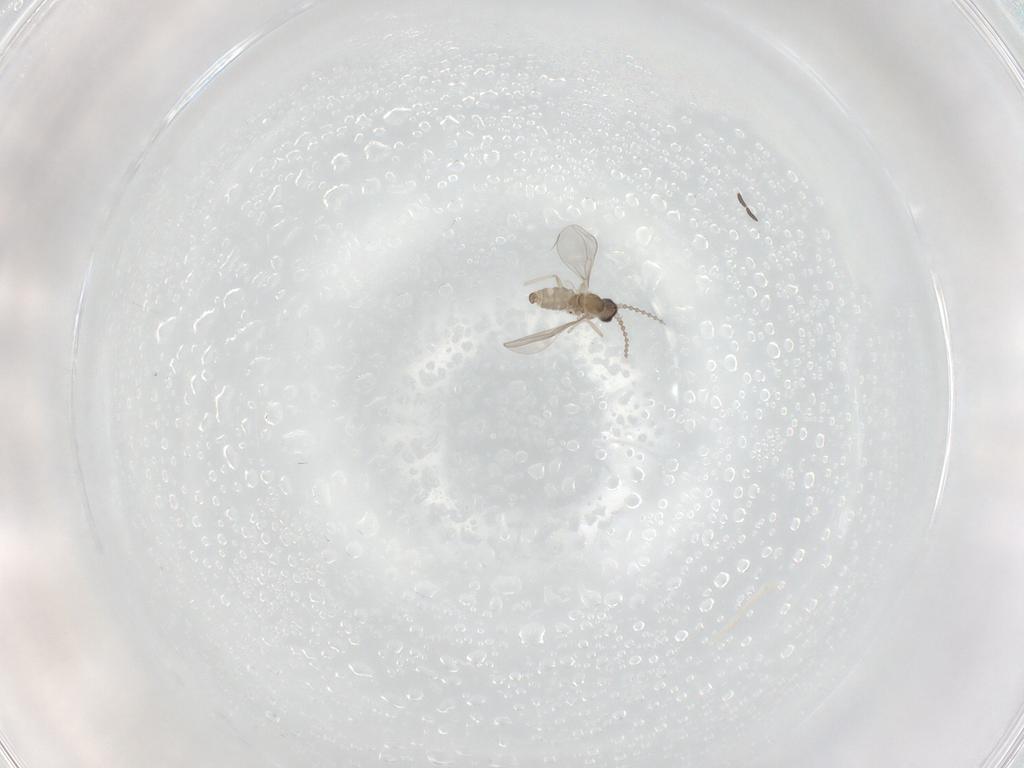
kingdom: Animalia
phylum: Arthropoda
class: Insecta
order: Diptera
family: Cecidomyiidae
